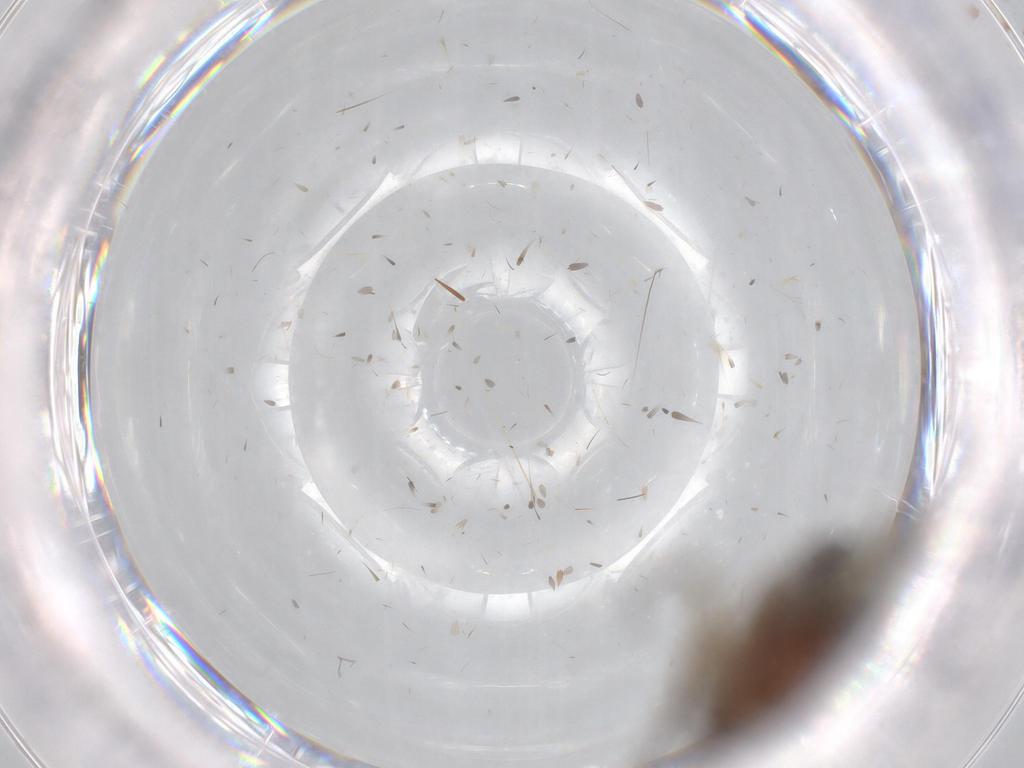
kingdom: Animalia
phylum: Arthropoda
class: Insecta
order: Diptera
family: Mycetophilidae
